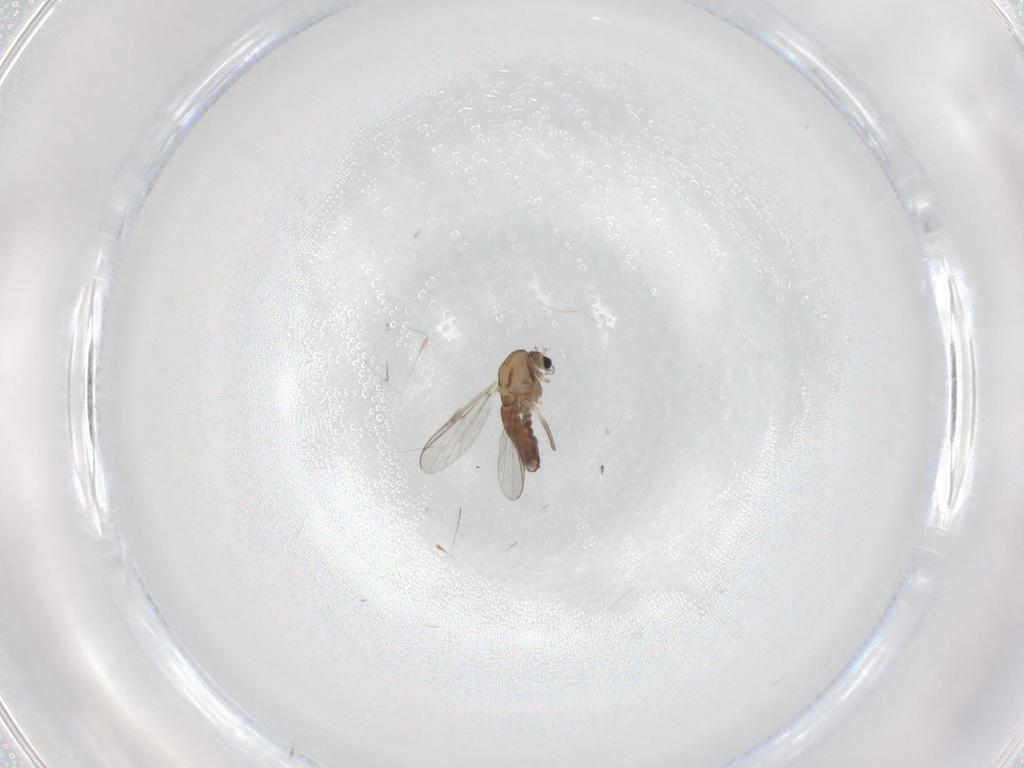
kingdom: Animalia
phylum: Arthropoda
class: Insecta
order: Diptera
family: Chironomidae
